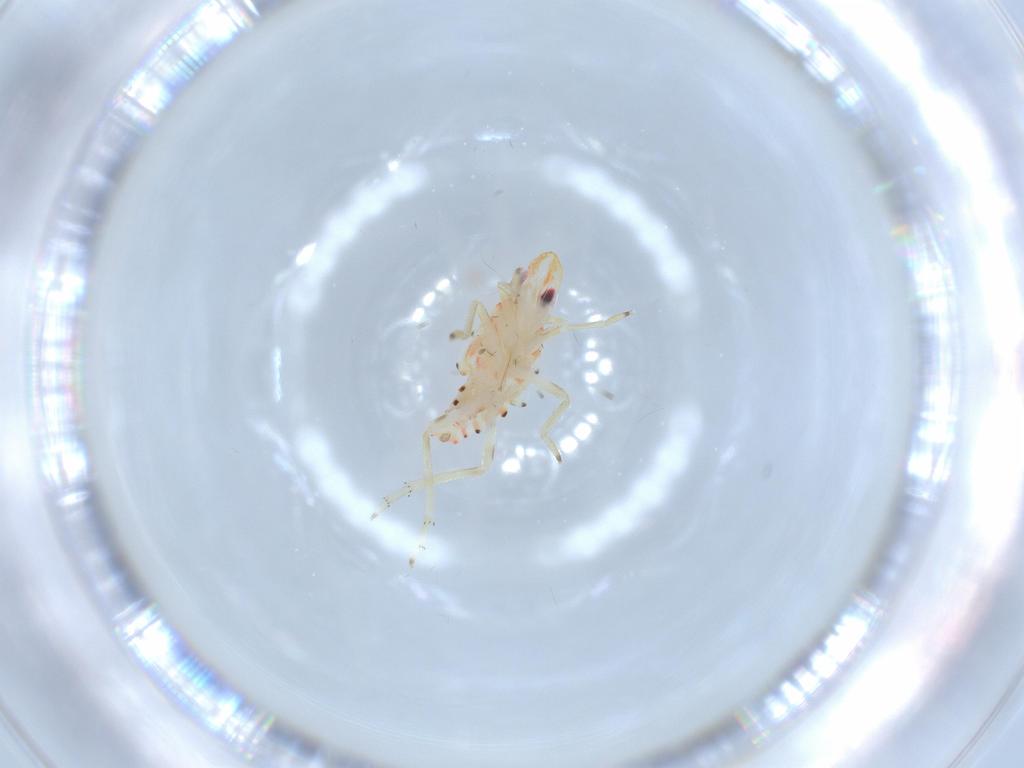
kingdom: Animalia
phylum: Arthropoda
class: Insecta
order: Hemiptera
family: Tropiduchidae
